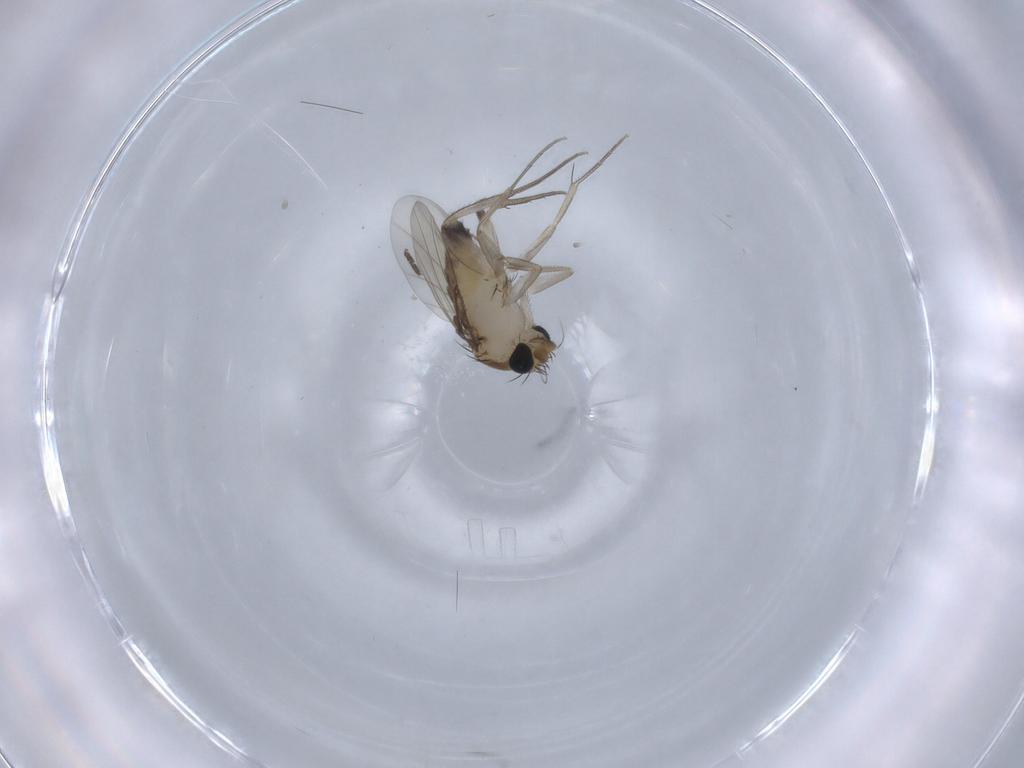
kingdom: Animalia
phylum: Arthropoda
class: Insecta
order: Diptera
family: Phoridae
